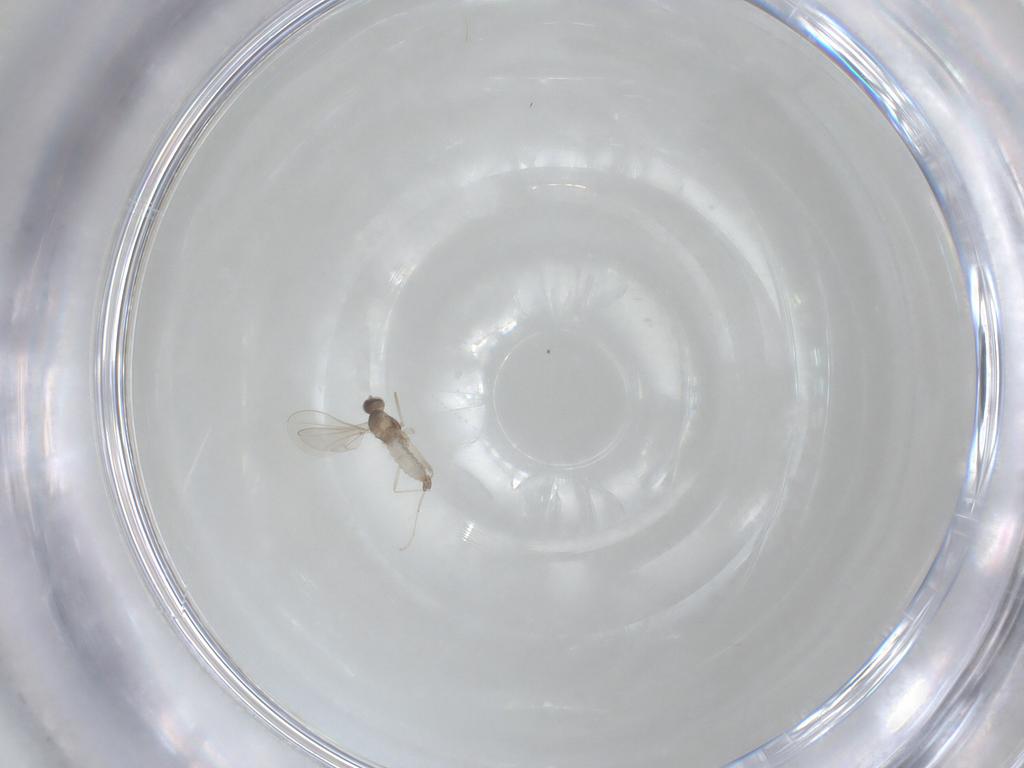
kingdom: Animalia
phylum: Arthropoda
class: Insecta
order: Diptera
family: Cecidomyiidae
